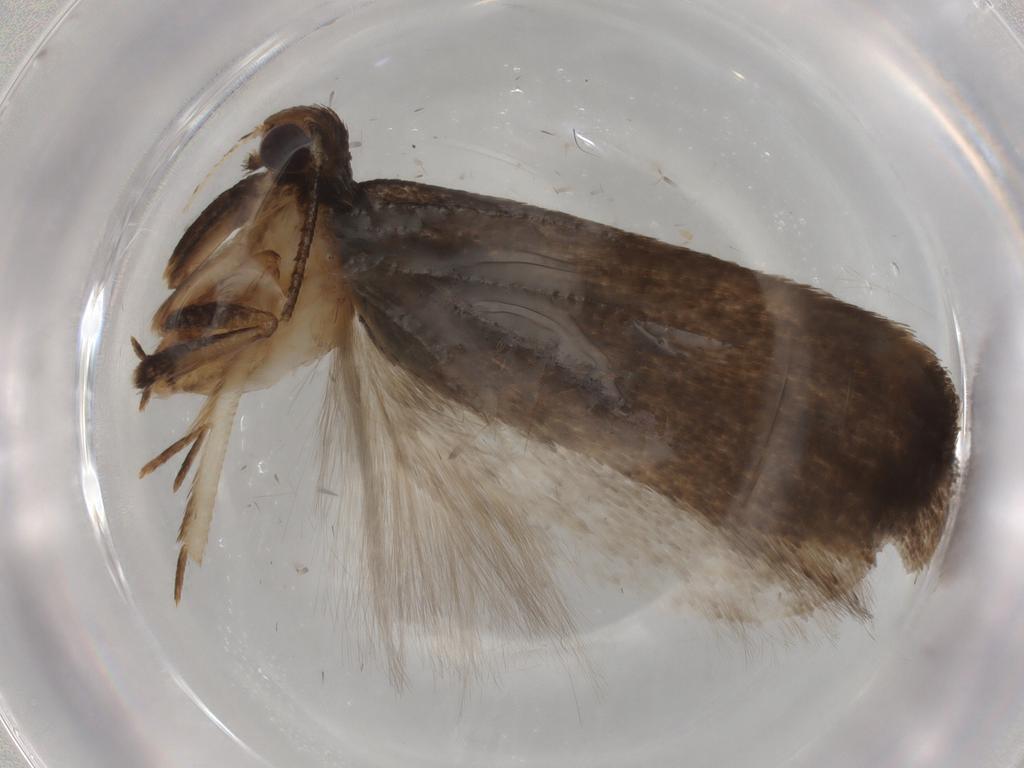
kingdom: Animalia
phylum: Arthropoda
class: Insecta
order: Lepidoptera
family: Gelechiidae
